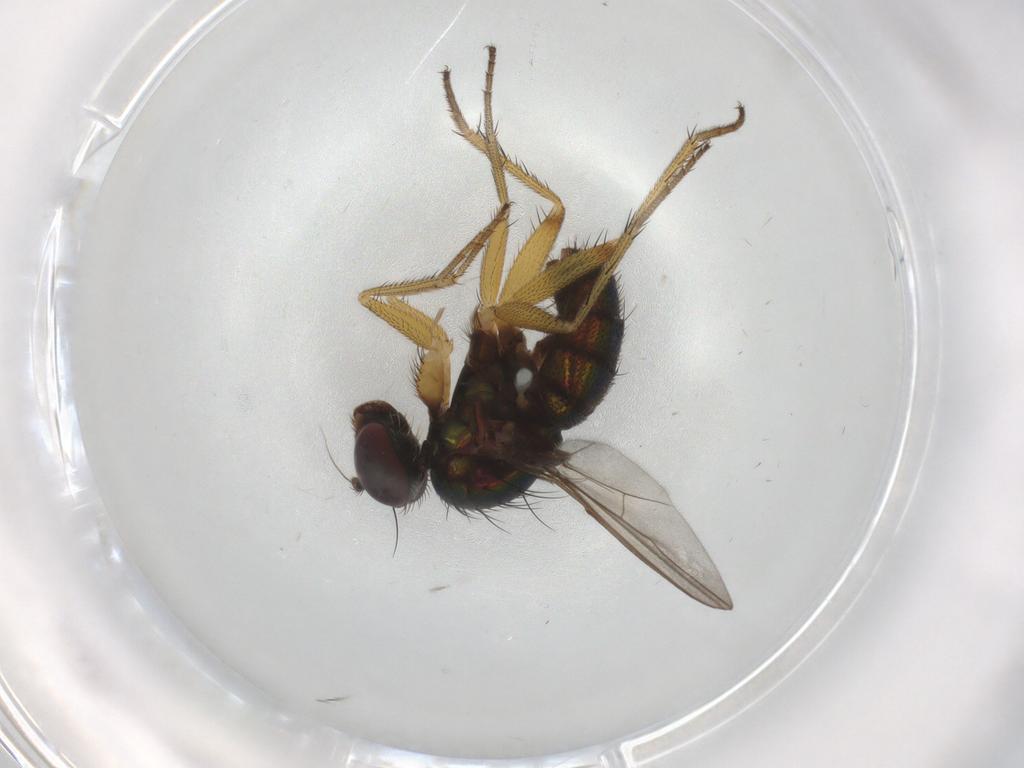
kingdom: Animalia
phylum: Arthropoda
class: Insecta
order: Diptera
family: Dolichopodidae
